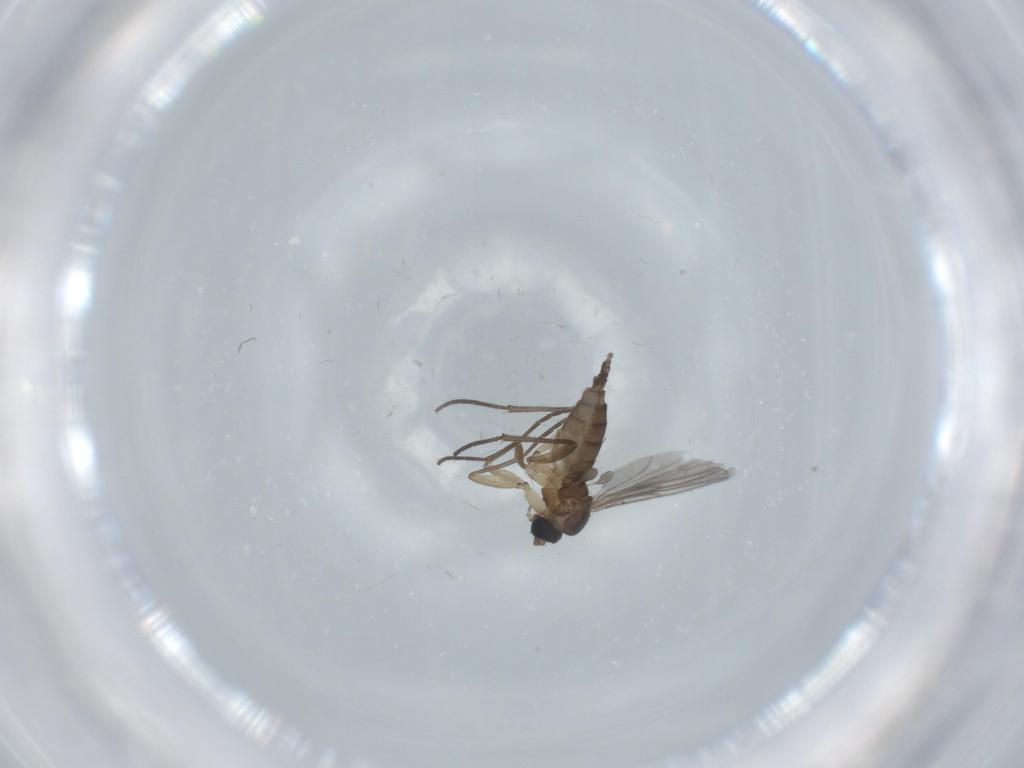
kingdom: Animalia
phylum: Arthropoda
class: Insecta
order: Diptera
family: Sciaridae
